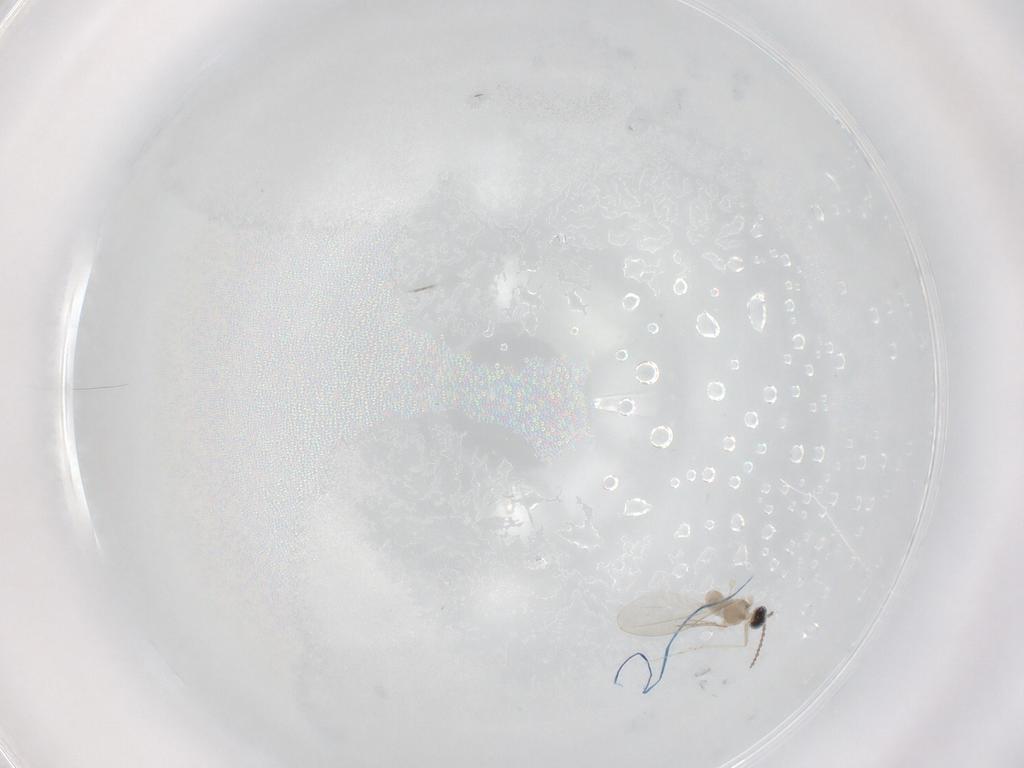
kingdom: Animalia
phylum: Arthropoda
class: Insecta
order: Diptera
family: Cecidomyiidae
